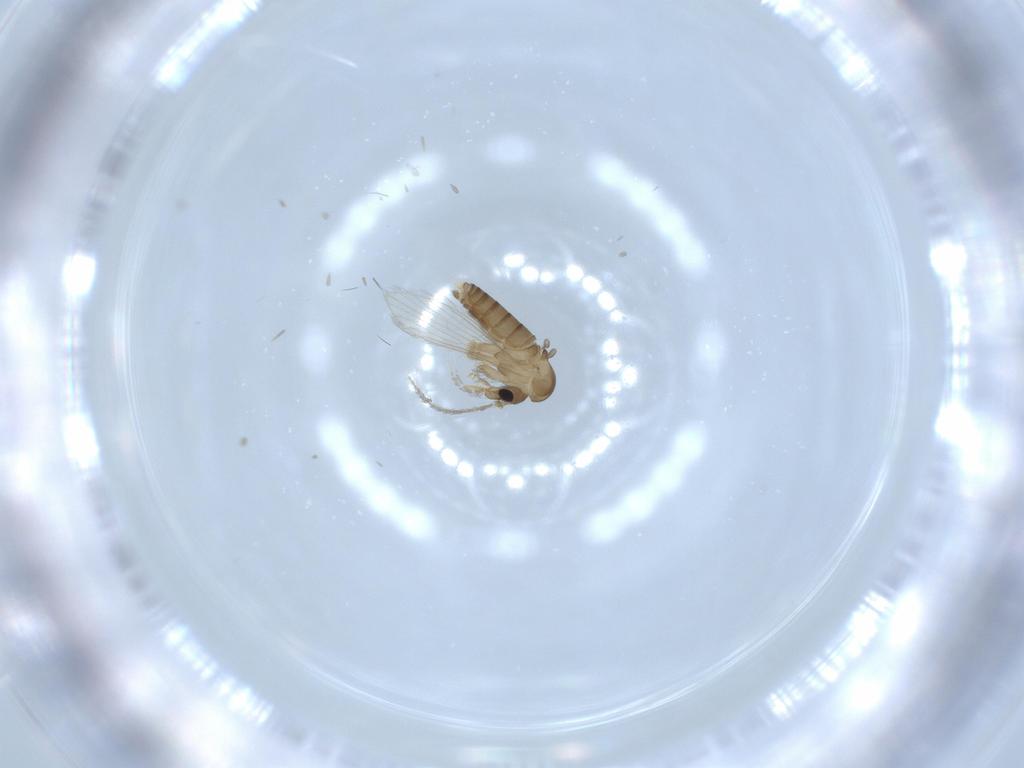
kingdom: Animalia
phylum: Arthropoda
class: Insecta
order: Diptera
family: Psychodidae
